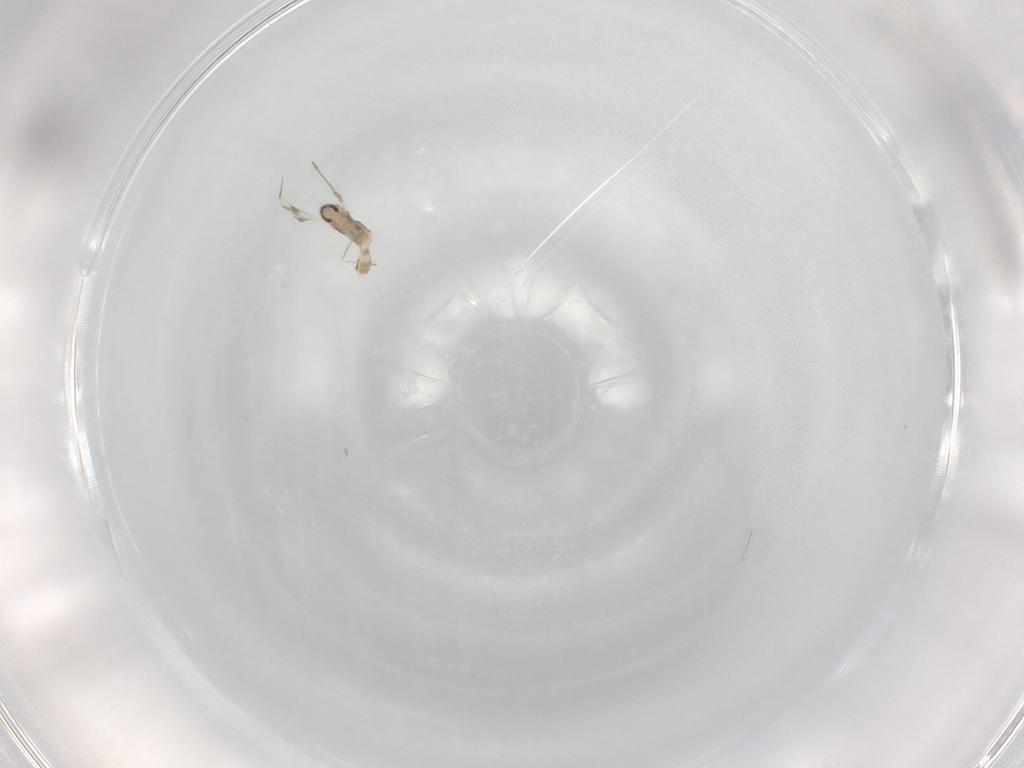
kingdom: Animalia
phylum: Arthropoda
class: Insecta
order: Diptera
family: Cecidomyiidae
